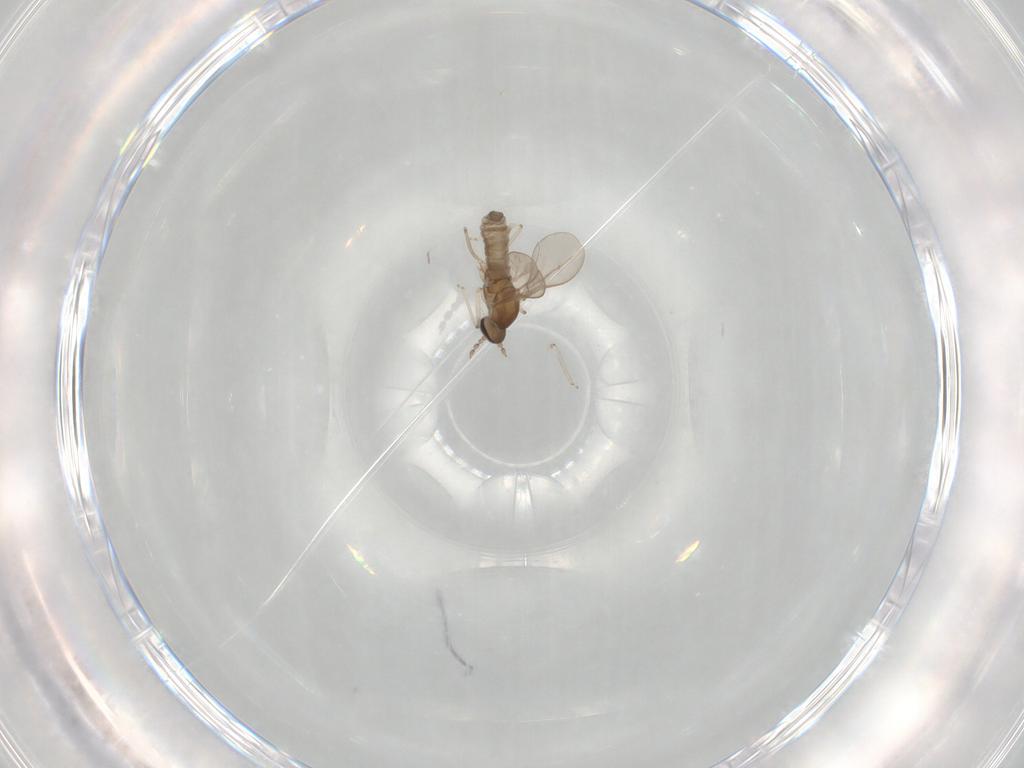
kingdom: Animalia
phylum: Arthropoda
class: Insecta
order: Diptera
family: Cecidomyiidae
